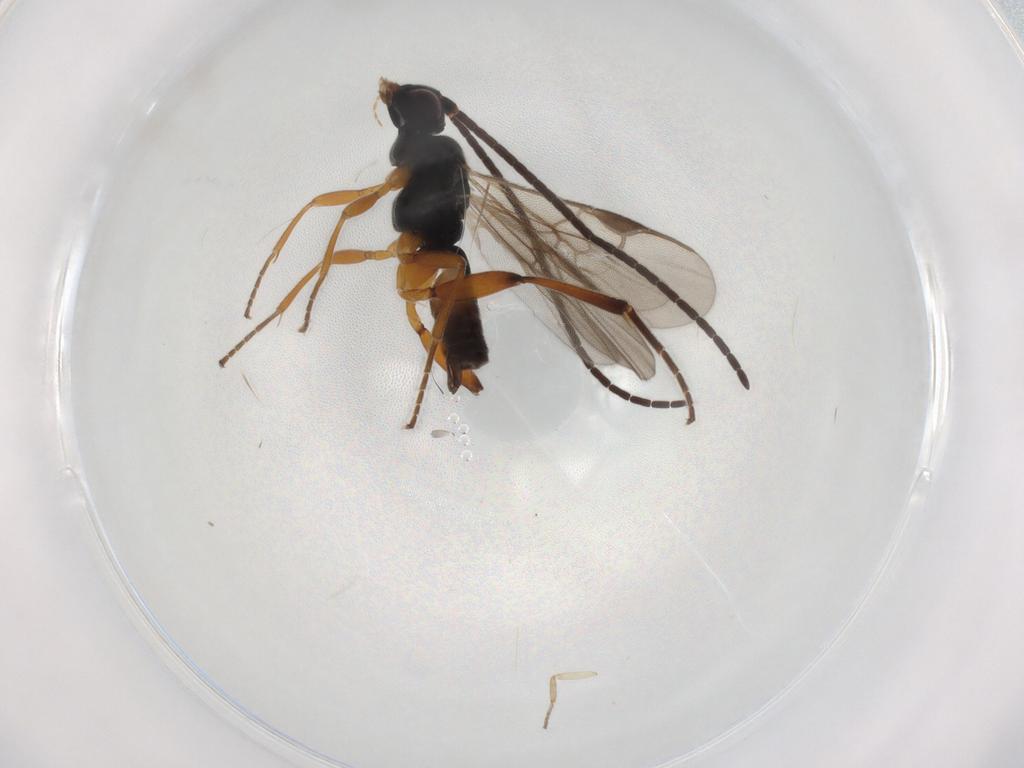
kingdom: Animalia
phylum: Arthropoda
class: Insecta
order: Hymenoptera
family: Braconidae
